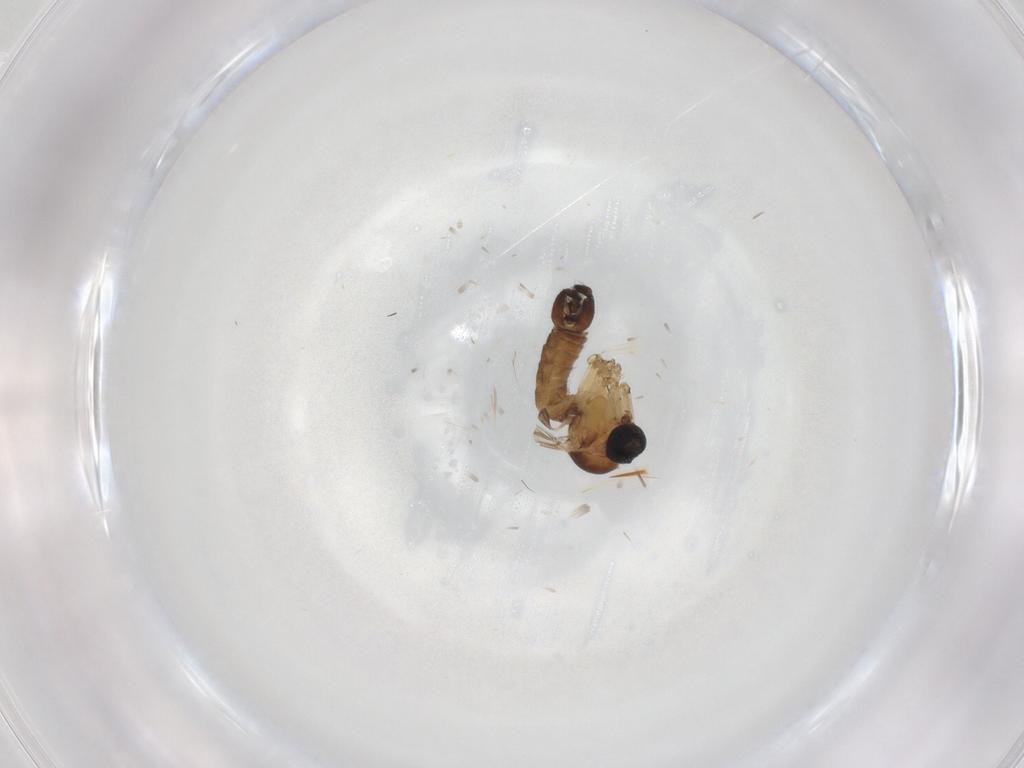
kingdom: Animalia
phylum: Arthropoda
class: Insecta
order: Diptera
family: Sciaridae
